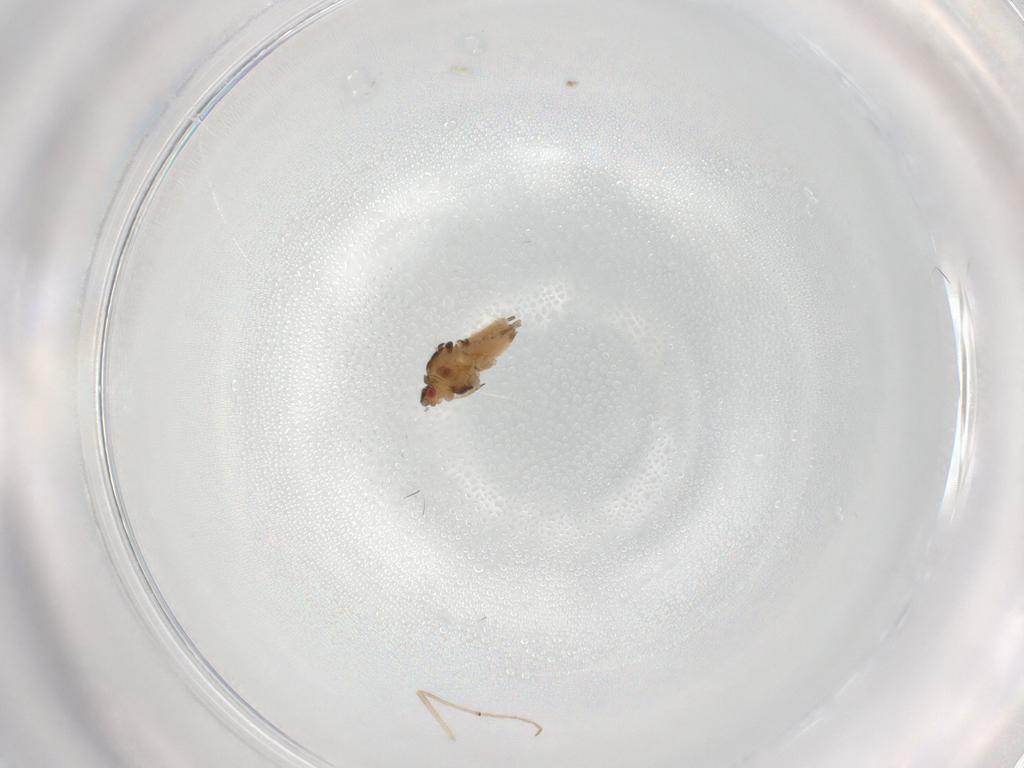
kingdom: Animalia
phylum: Arthropoda
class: Insecta
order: Hemiptera
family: Aphididae
